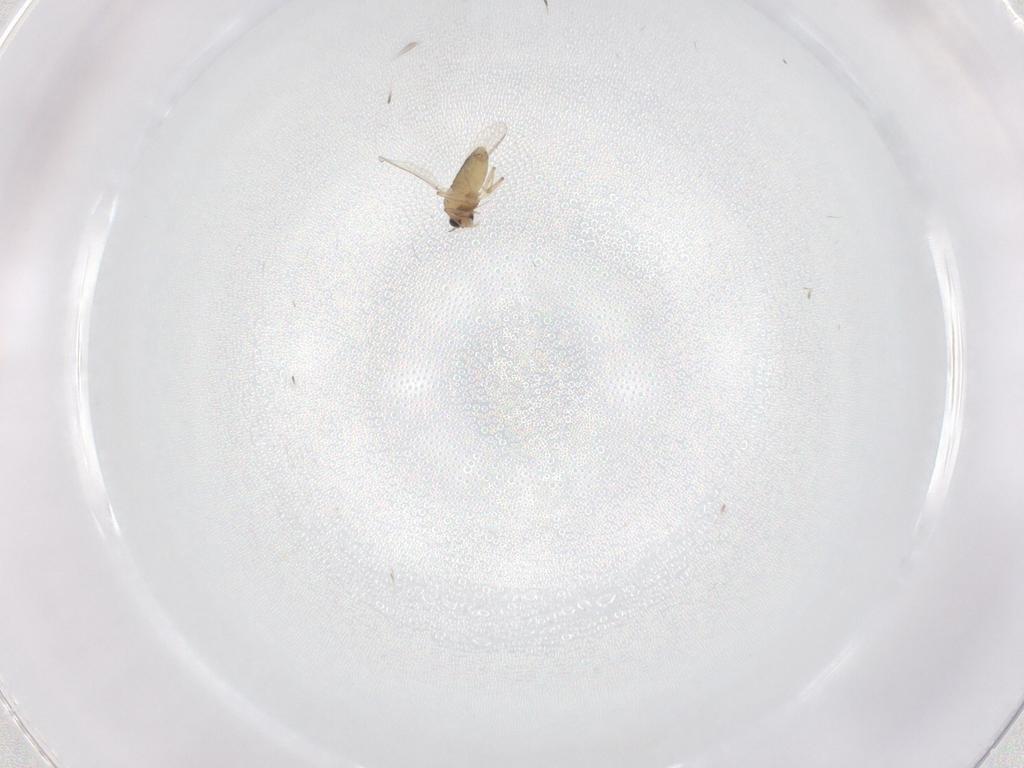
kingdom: Animalia
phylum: Arthropoda
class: Insecta
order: Diptera
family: Chironomidae
